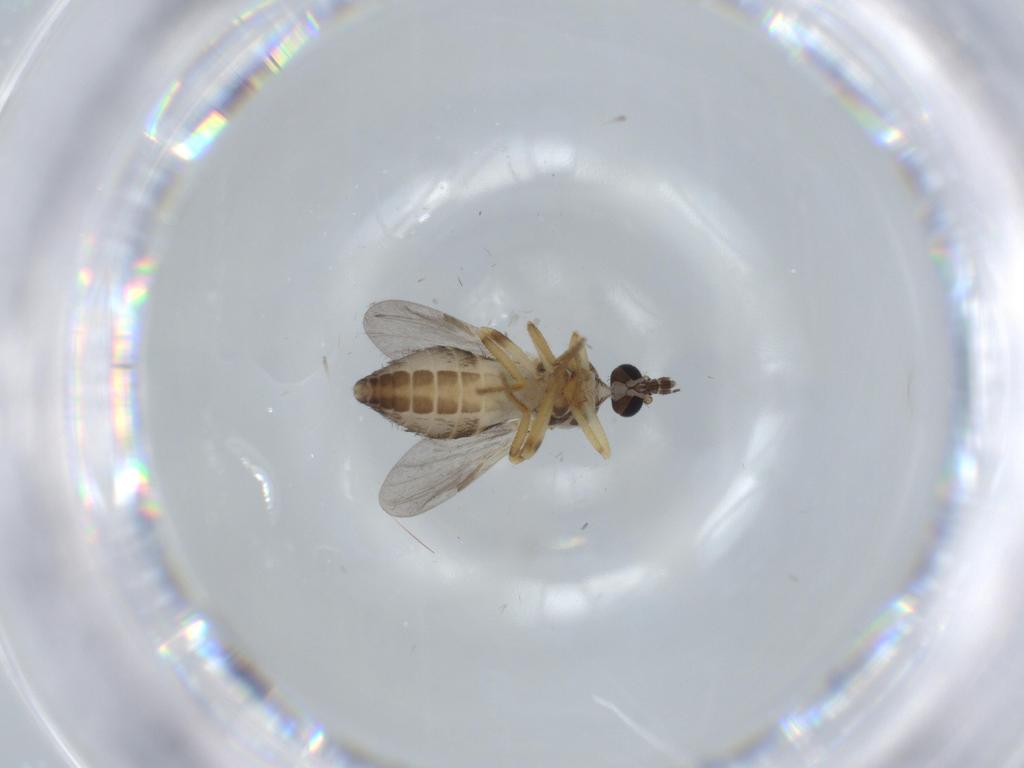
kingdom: Animalia
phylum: Arthropoda
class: Insecta
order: Diptera
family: Ceratopogonidae
